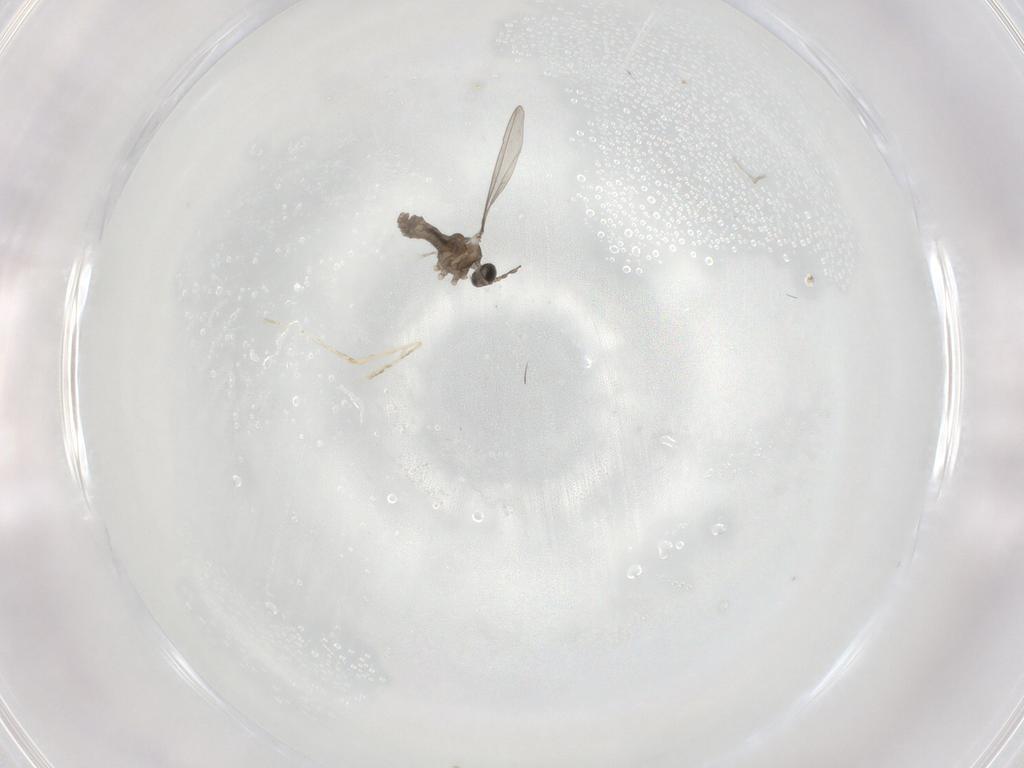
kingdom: Animalia
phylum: Arthropoda
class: Insecta
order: Diptera
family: Cecidomyiidae
